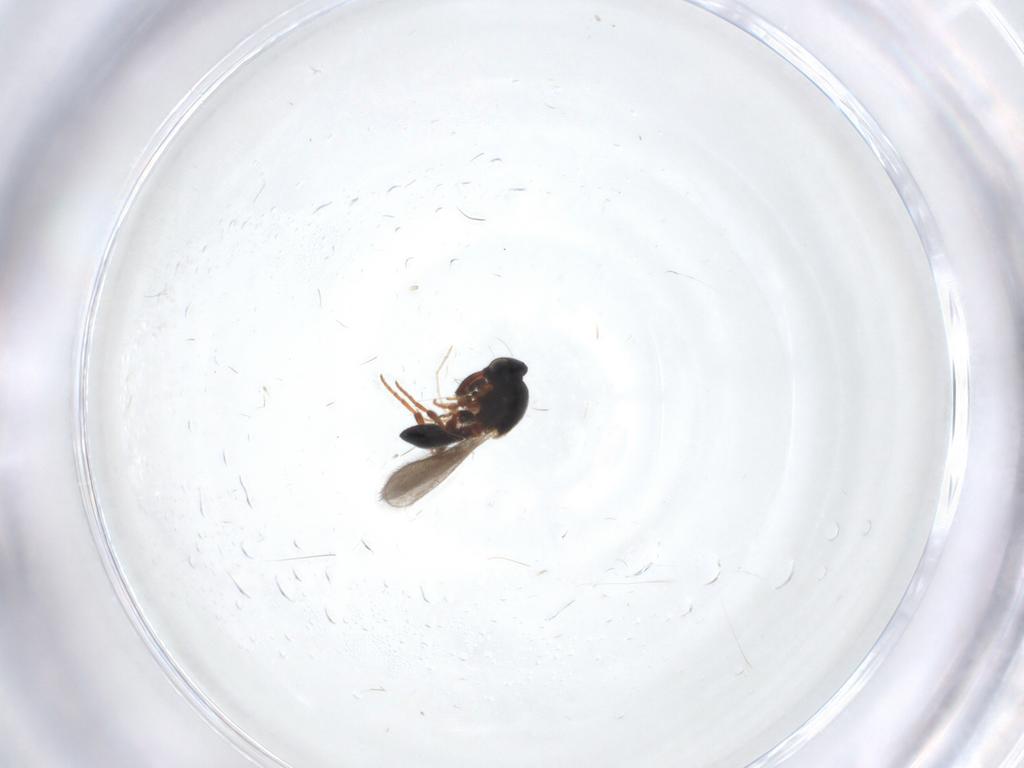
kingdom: Animalia
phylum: Arthropoda
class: Insecta
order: Hymenoptera
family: Platygastridae
